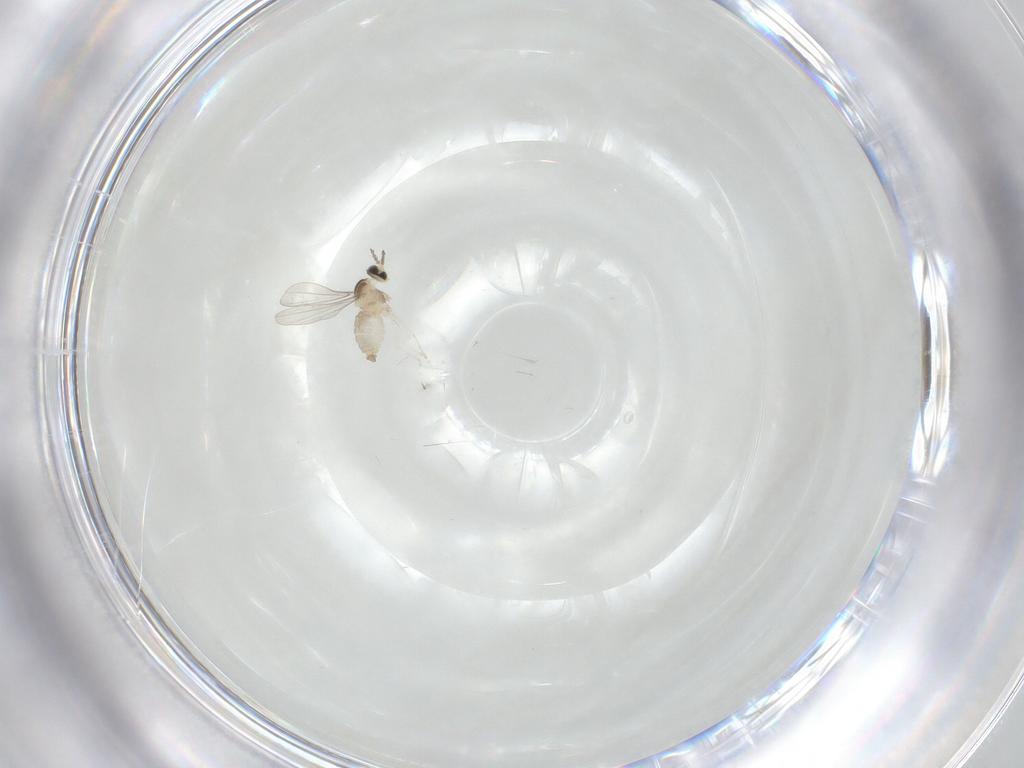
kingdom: Animalia
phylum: Arthropoda
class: Insecta
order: Diptera
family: Cecidomyiidae
